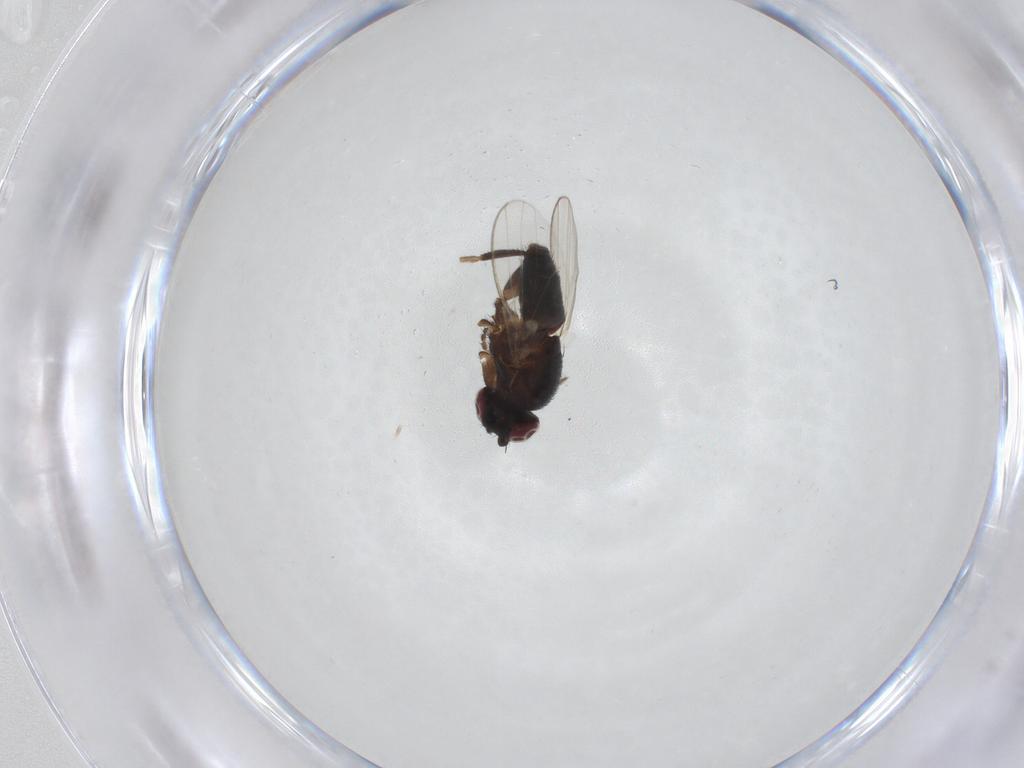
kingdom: Animalia
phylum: Arthropoda
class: Insecta
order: Diptera
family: Milichiidae
